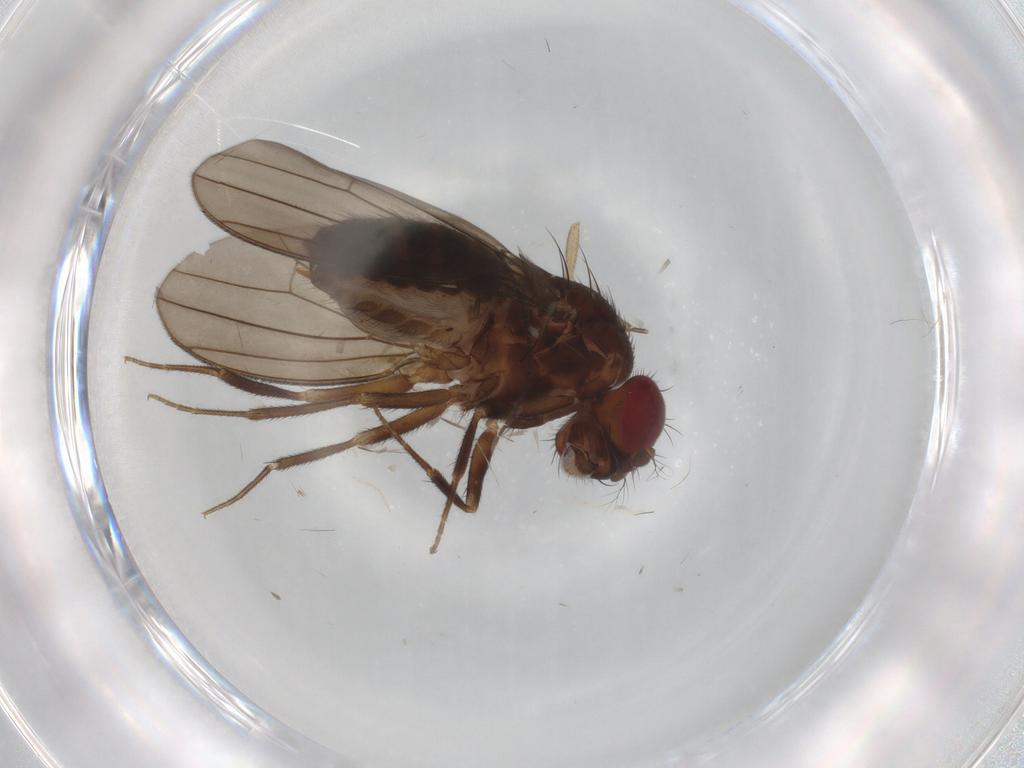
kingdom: Animalia
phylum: Arthropoda
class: Insecta
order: Diptera
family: Drosophilidae
